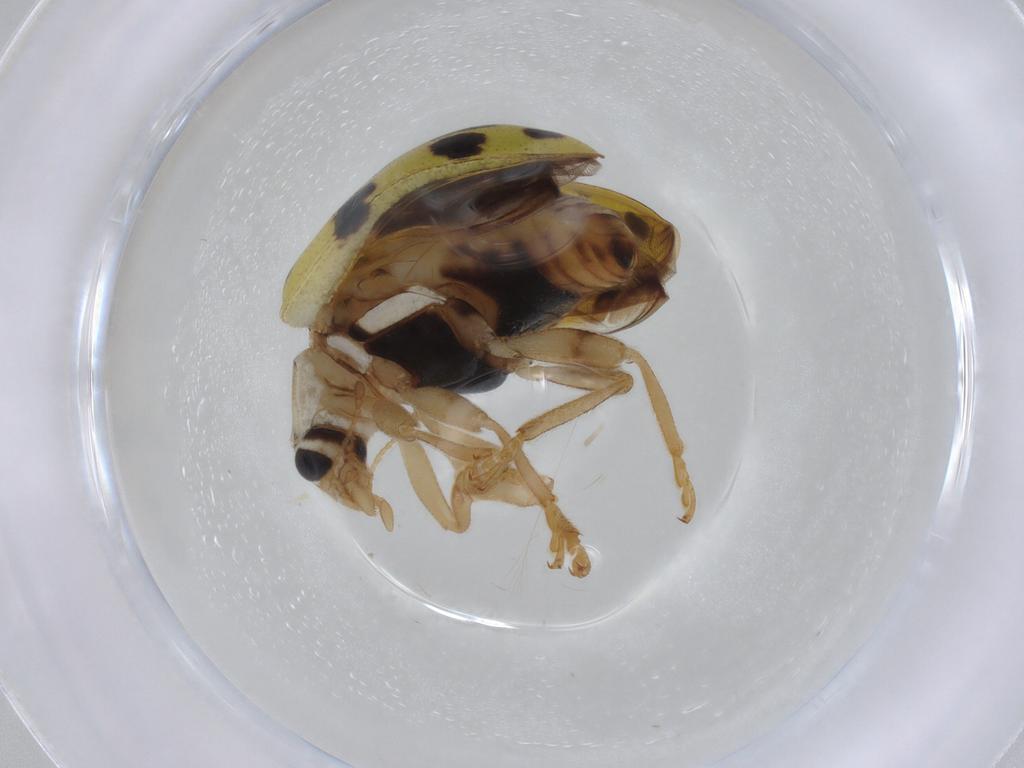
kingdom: Animalia
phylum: Arthropoda
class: Insecta
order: Coleoptera
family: Coccinellidae
